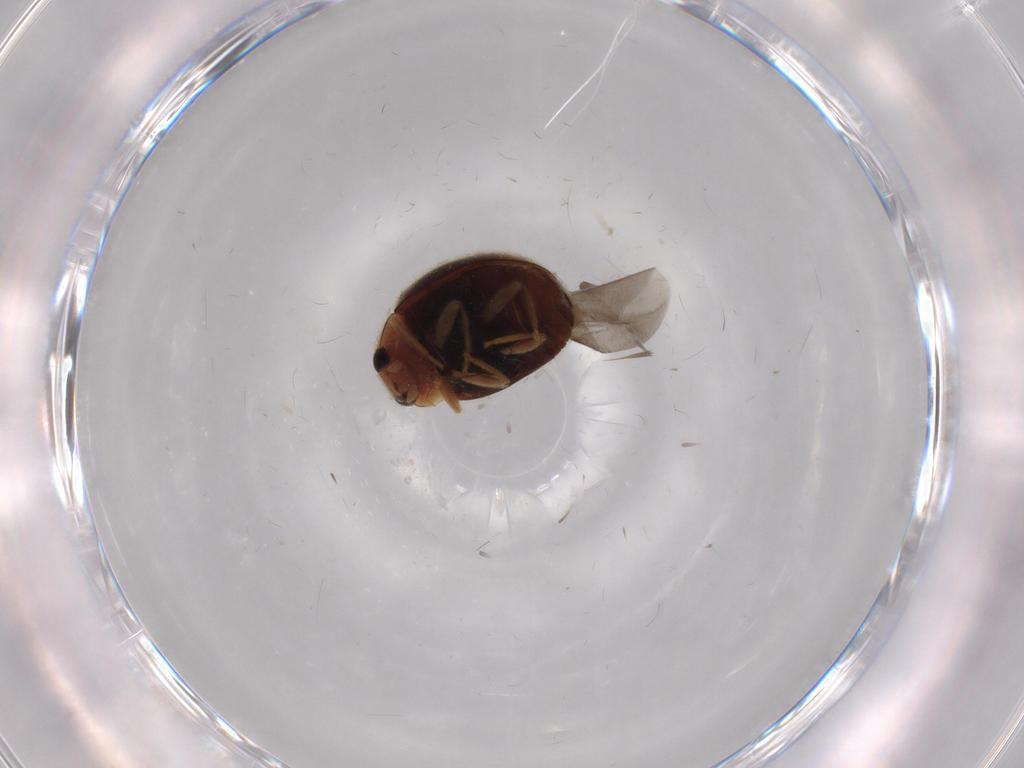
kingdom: Animalia
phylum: Arthropoda
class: Insecta
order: Coleoptera
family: Coccinellidae
